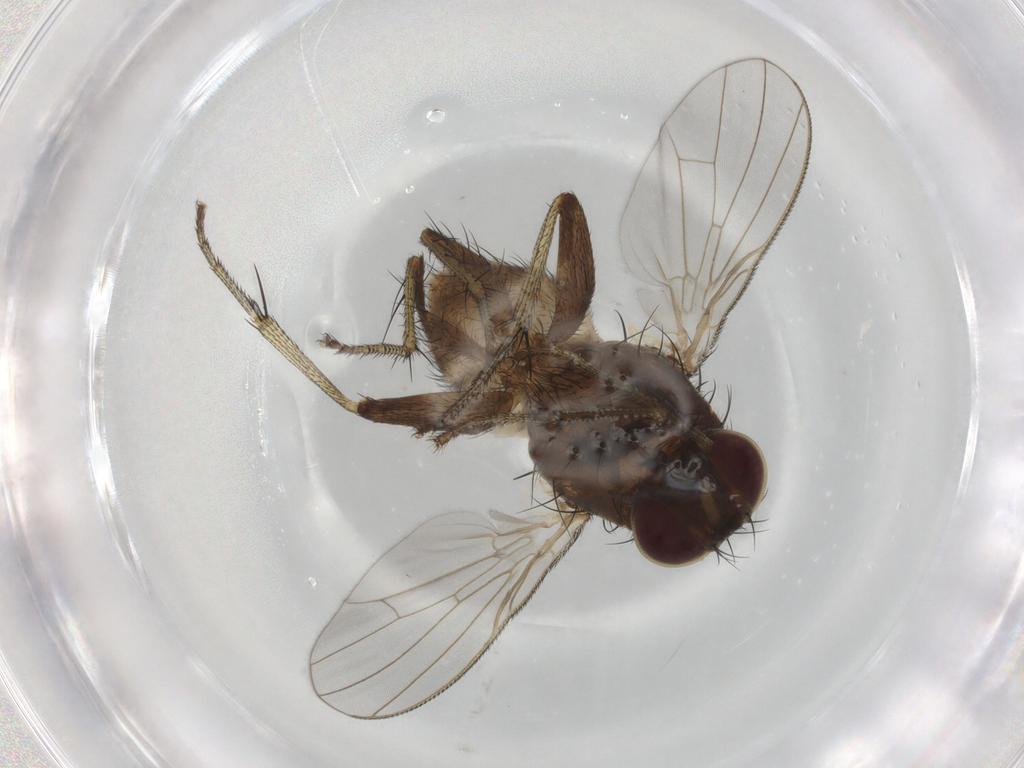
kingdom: Animalia
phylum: Arthropoda
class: Insecta
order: Diptera
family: Muscidae
